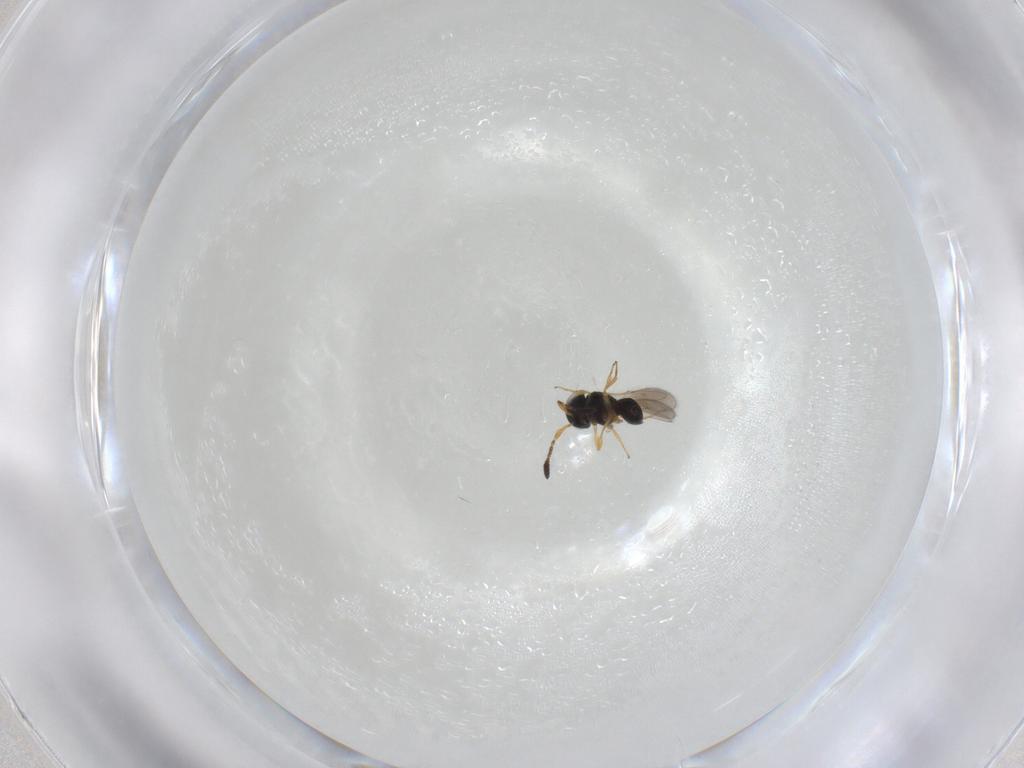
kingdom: Animalia
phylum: Arthropoda
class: Insecta
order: Hymenoptera
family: Scelionidae
